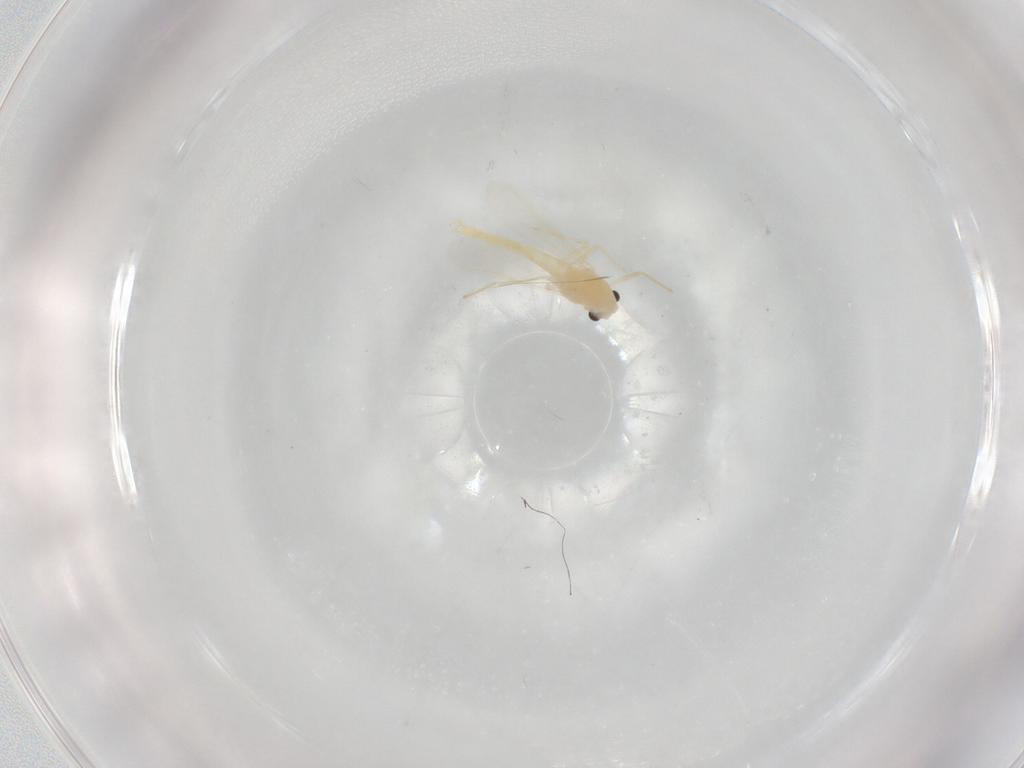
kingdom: Animalia
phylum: Arthropoda
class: Insecta
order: Diptera
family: Chironomidae
